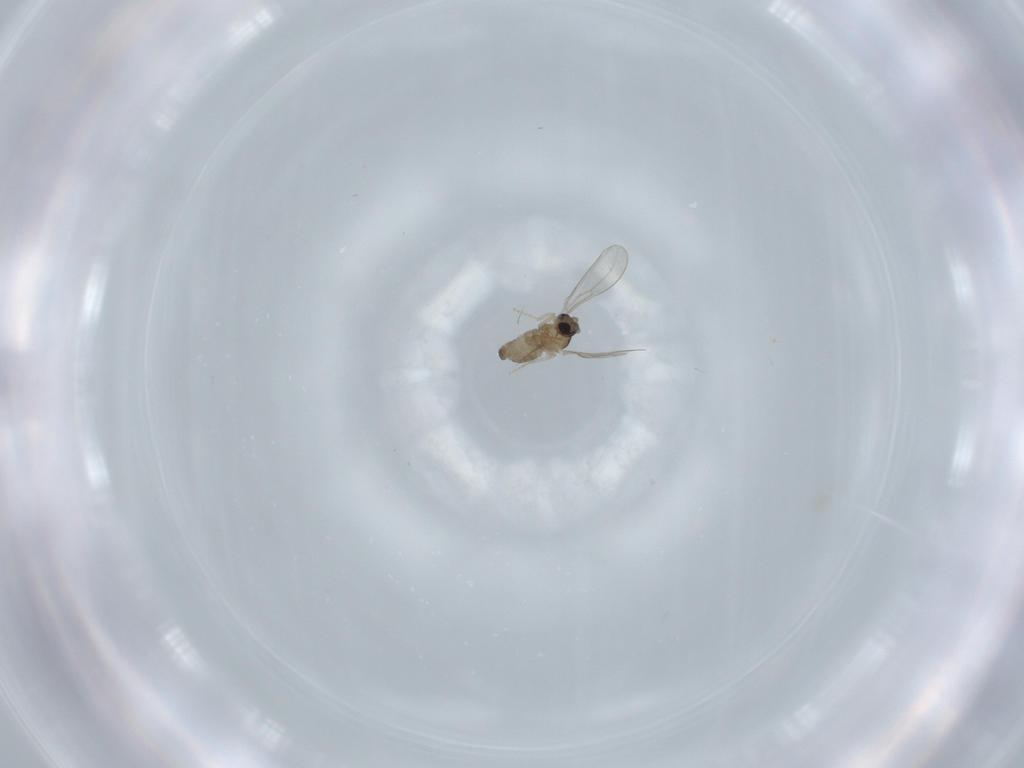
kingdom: Animalia
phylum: Arthropoda
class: Insecta
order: Diptera
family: Cecidomyiidae
